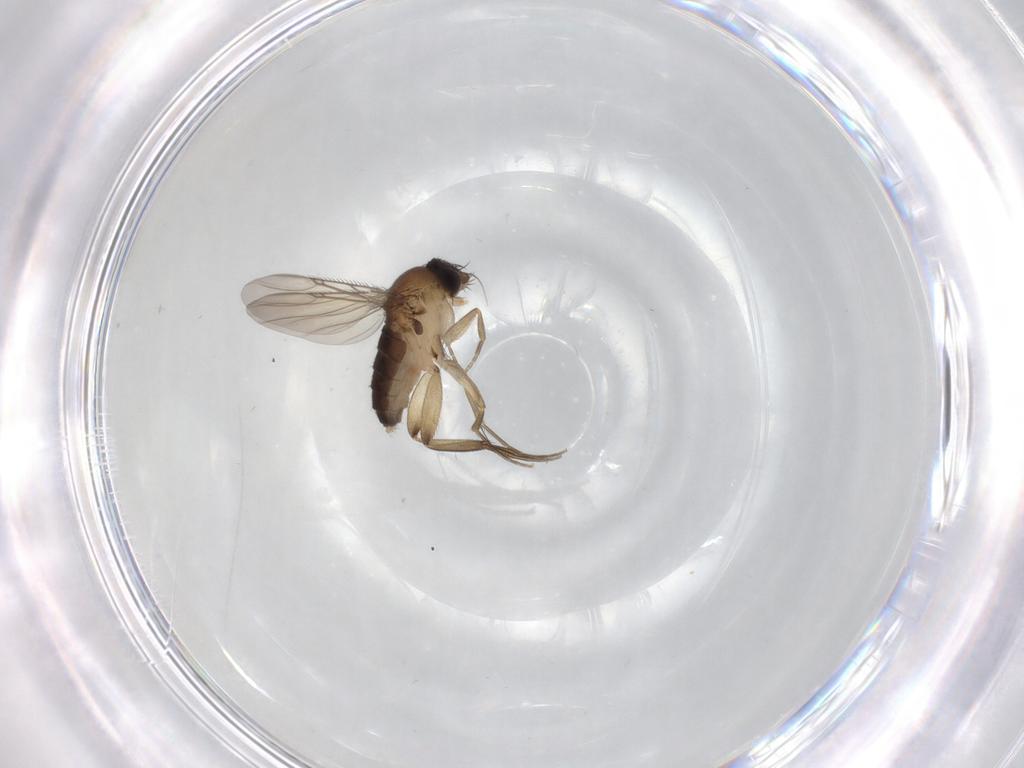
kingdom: Animalia
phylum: Arthropoda
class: Insecta
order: Diptera
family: Phoridae
